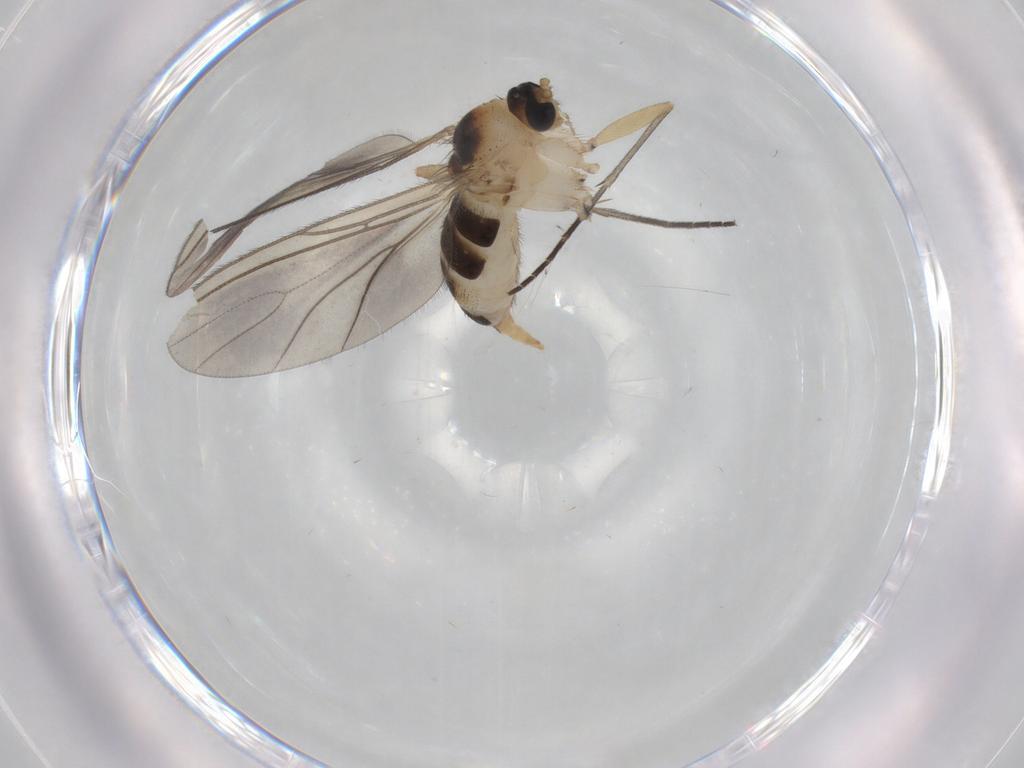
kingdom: Animalia
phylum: Arthropoda
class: Insecta
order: Diptera
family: Sciaridae
